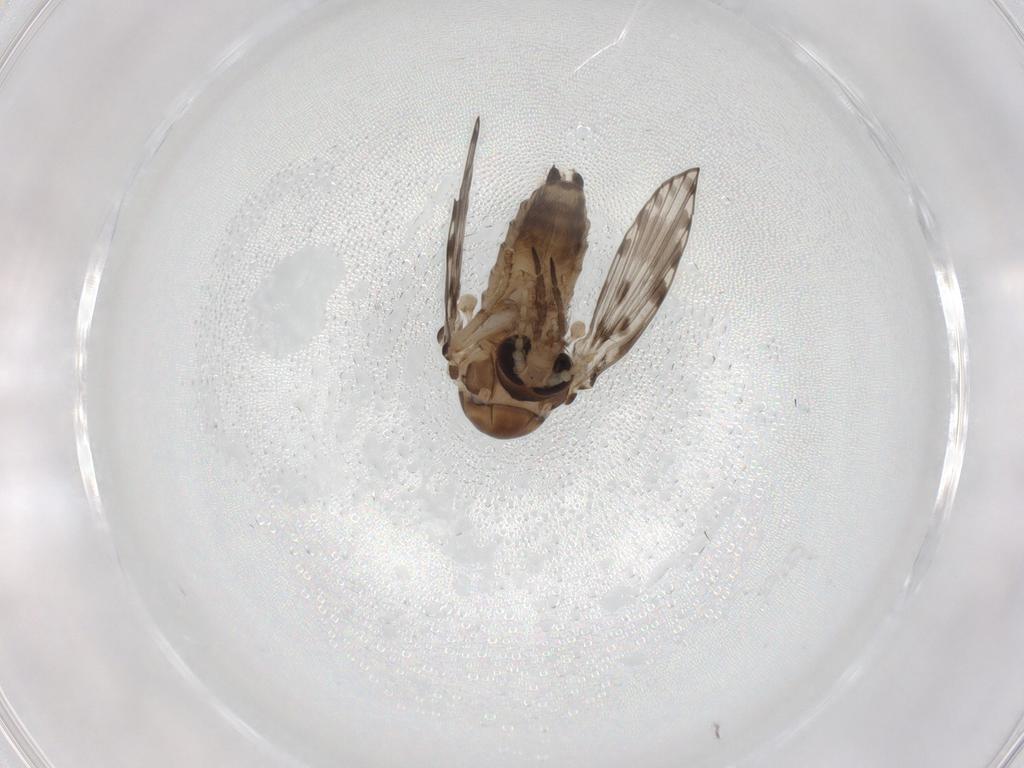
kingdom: Animalia
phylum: Arthropoda
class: Insecta
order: Diptera
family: Psychodidae
